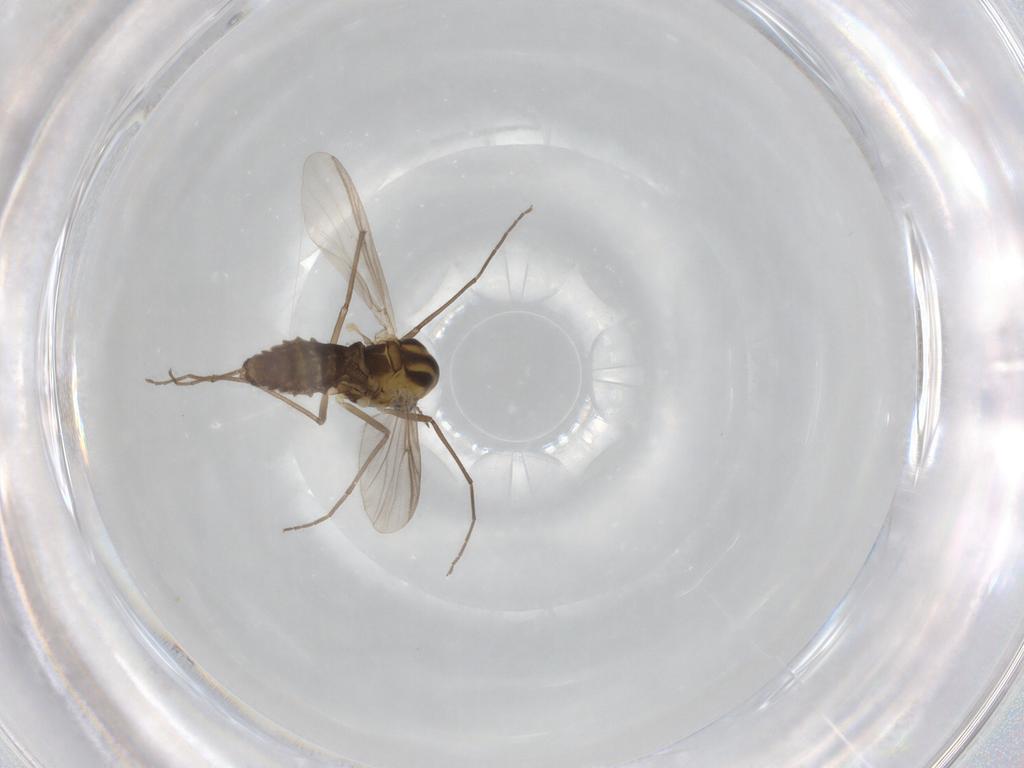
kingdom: Animalia
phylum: Arthropoda
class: Insecta
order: Diptera
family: Chironomidae
